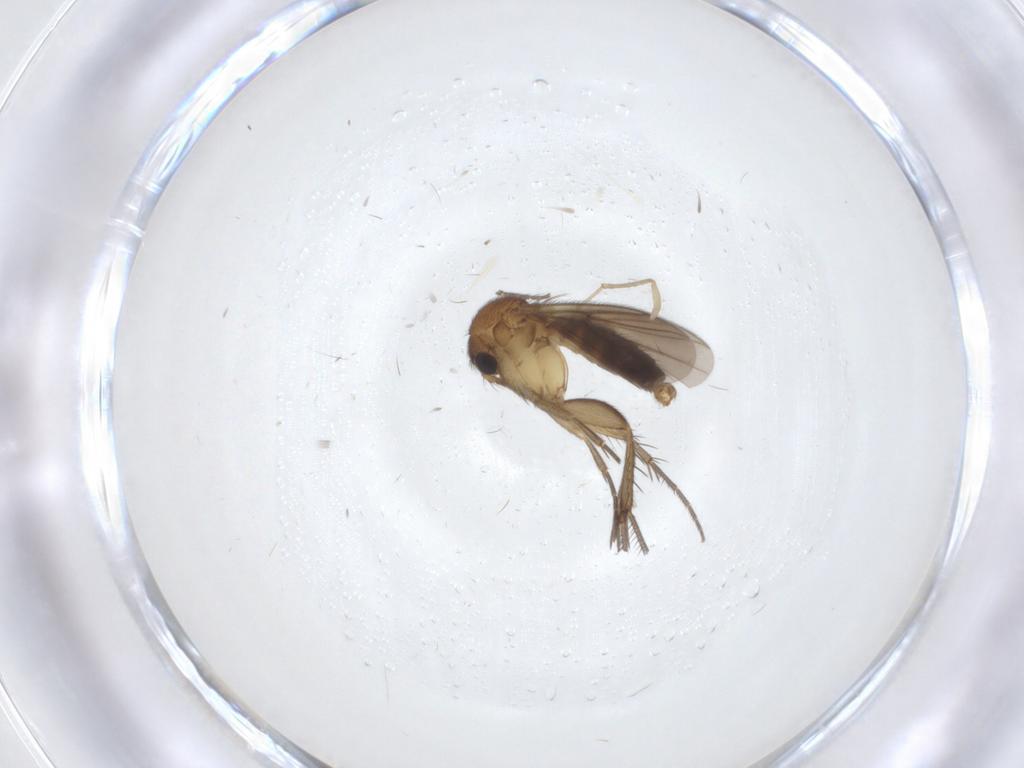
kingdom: Animalia
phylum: Arthropoda
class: Insecta
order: Diptera
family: Mycetophilidae
